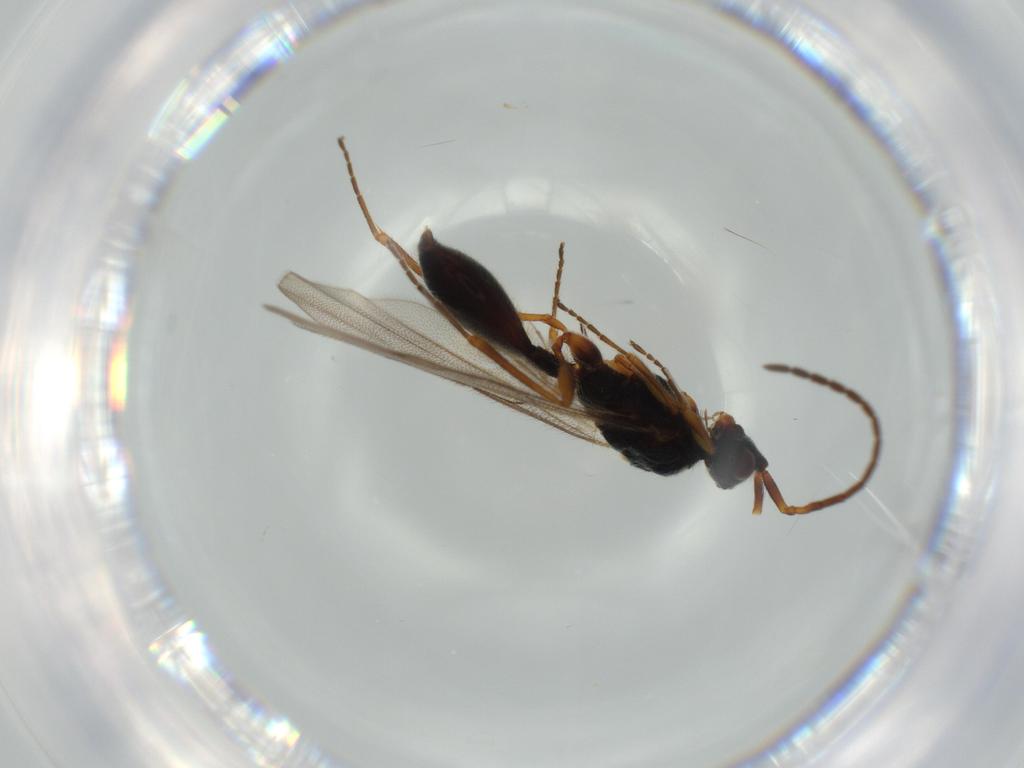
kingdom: Animalia
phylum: Arthropoda
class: Insecta
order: Hymenoptera
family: Diapriidae
